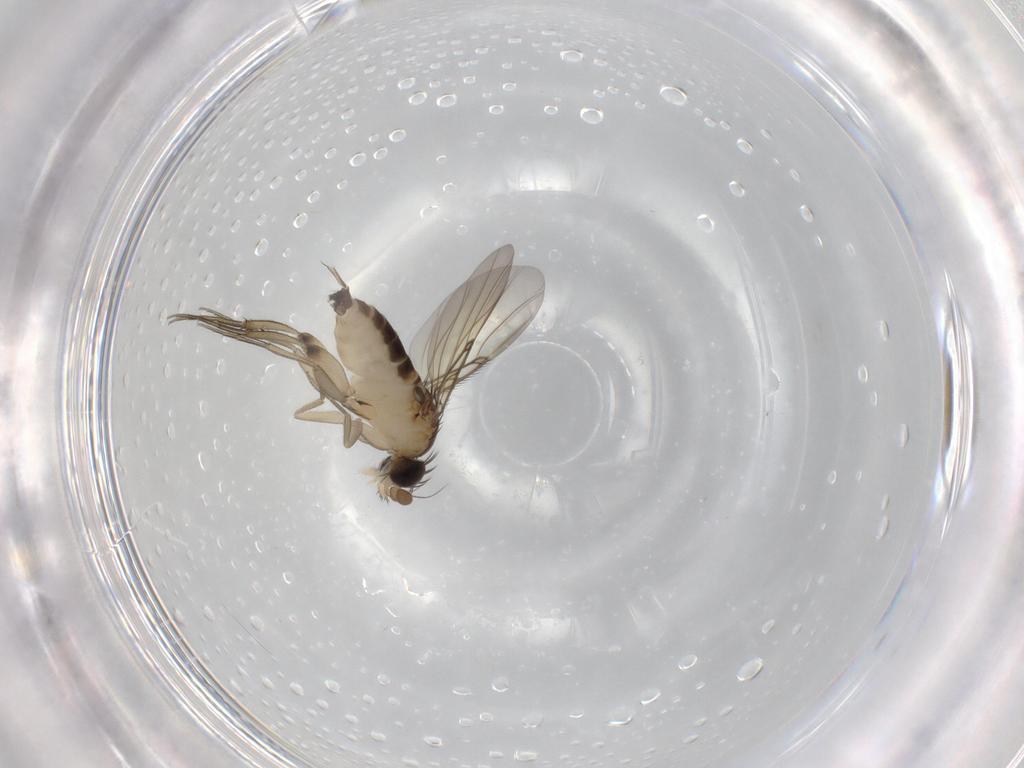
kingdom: Animalia
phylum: Arthropoda
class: Insecta
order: Diptera
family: Phoridae
